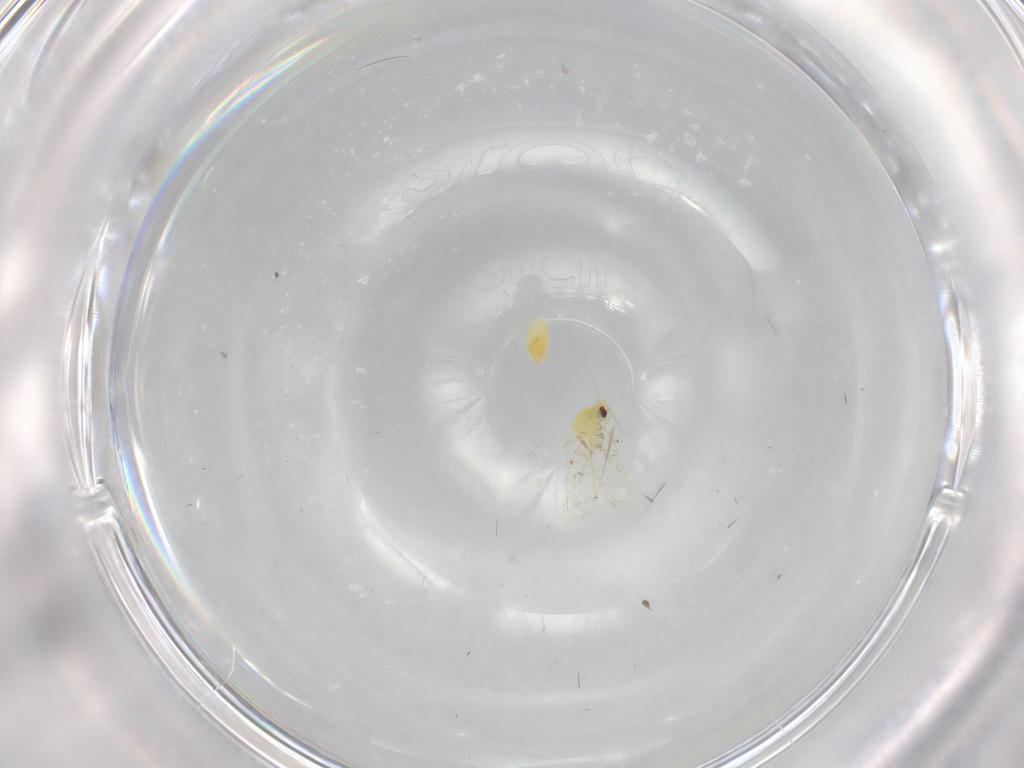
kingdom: Animalia
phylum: Arthropoda
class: Insecta
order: Hemiptera
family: Aleyrodidae
